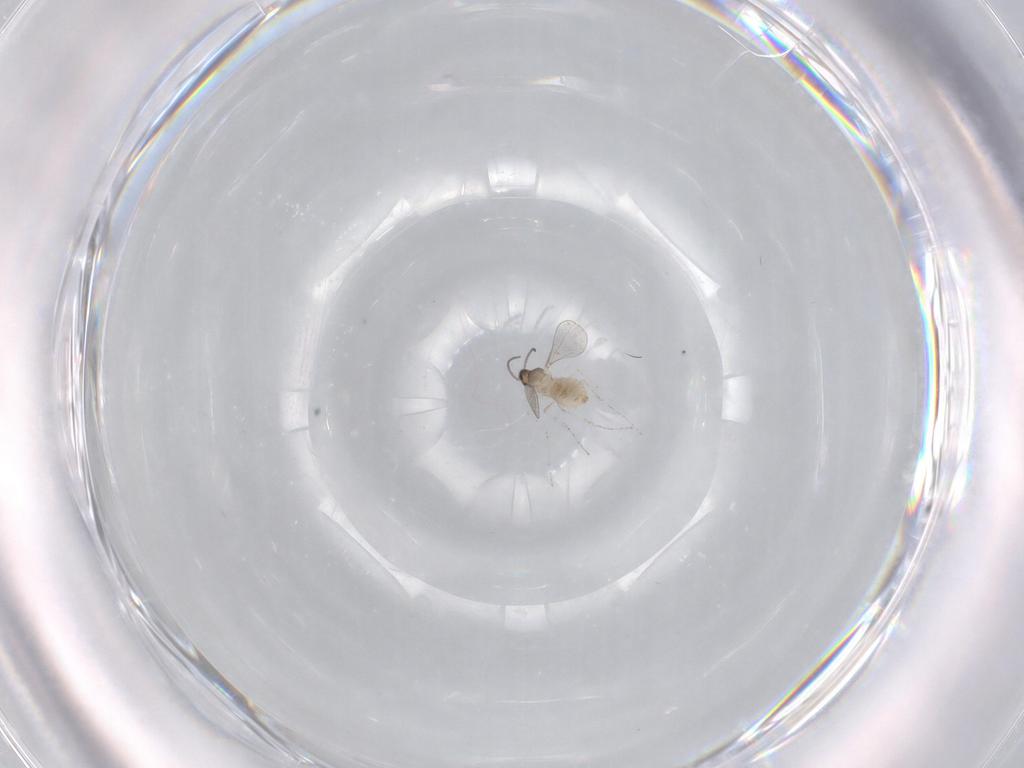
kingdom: Animalia
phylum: Arthropoda
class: Insecta
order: Diptera
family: Cecidomyiidae
